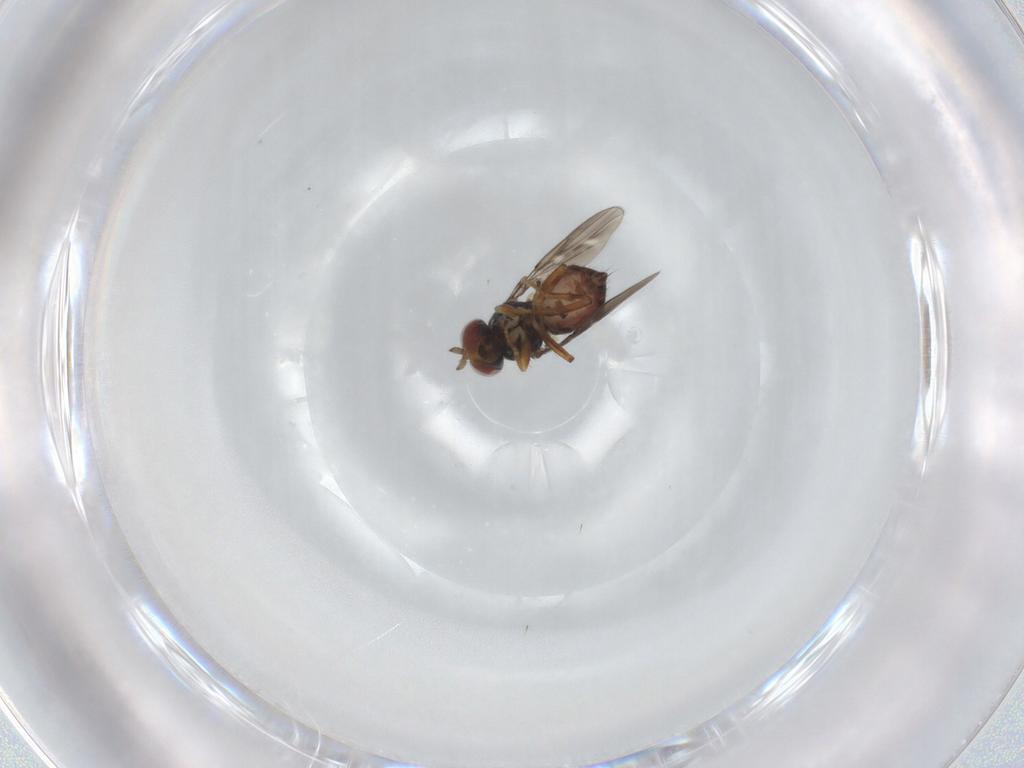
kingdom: Animalia
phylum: Arthropoda
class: Insecta
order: Diptera
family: Ephydridae
